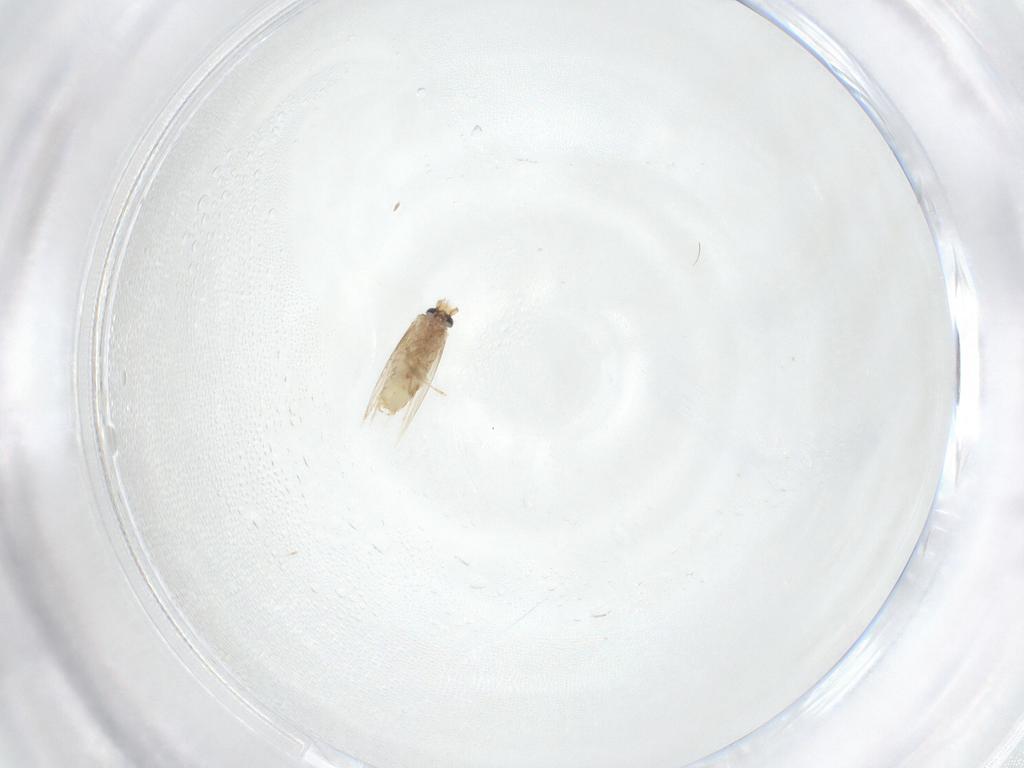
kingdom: Animalia
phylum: Arthropoda
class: Insecta
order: Lepidoptera
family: Nepticulidae
